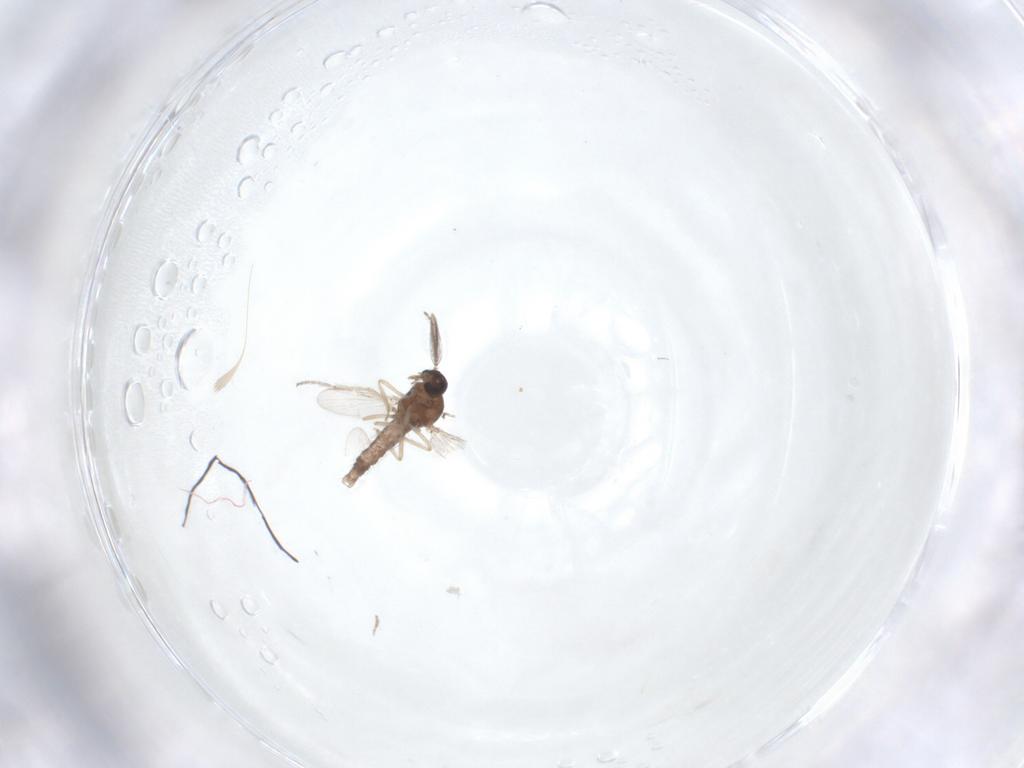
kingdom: Animalia
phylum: Arthropoda
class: Insecta
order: Diptera
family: Ceratopogonidae
